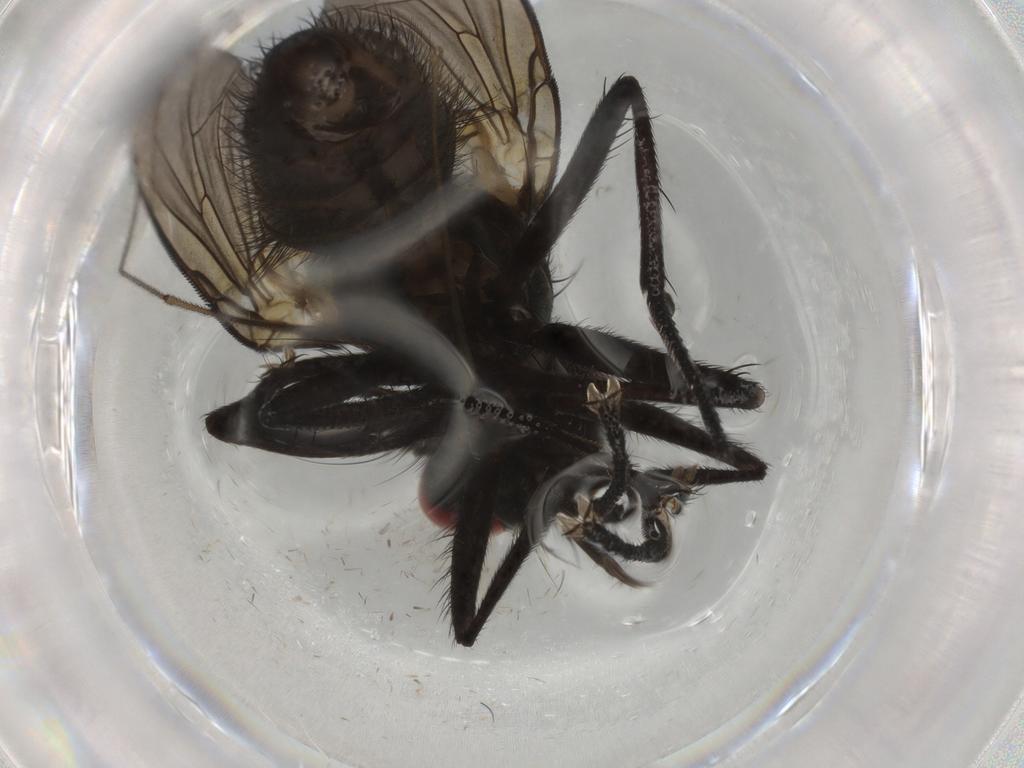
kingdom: Animalia
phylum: Arthropoda
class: Insecta
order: Diptera
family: Muscidae
